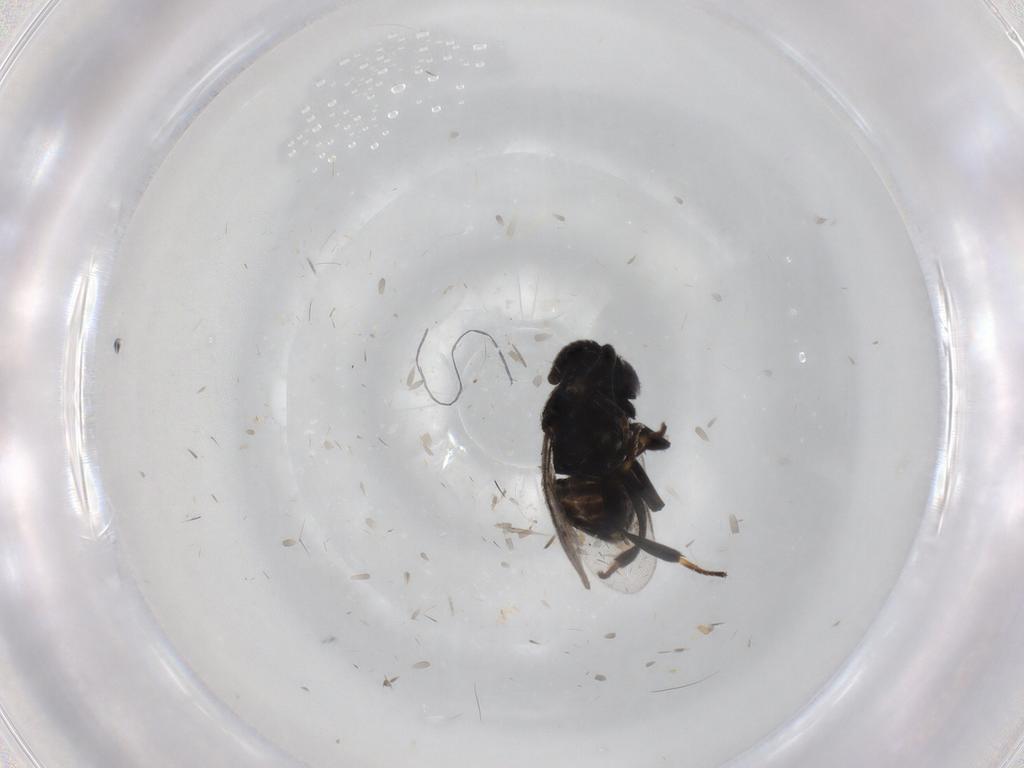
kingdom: Animalia
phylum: Arthropoda
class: Insecta
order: Hymenoptera
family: Encyrtidae
